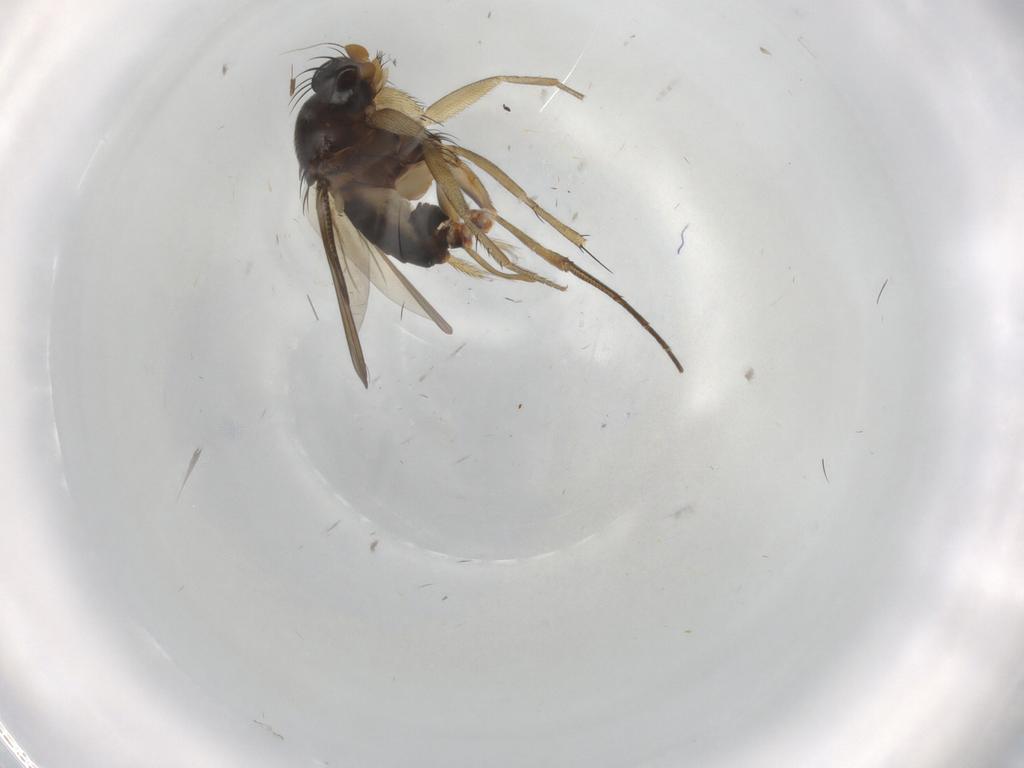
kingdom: Animalia
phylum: Arthropoda
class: Insecta
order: Diptera
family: Phoridae
